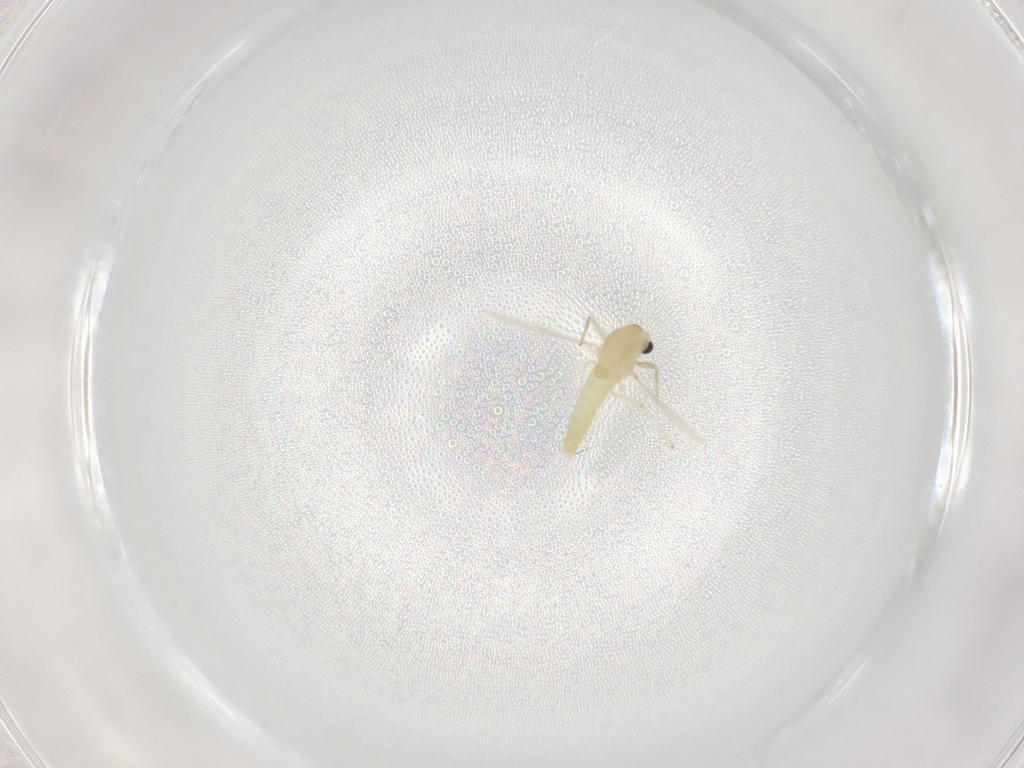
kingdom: Animalia
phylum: Arthropoda
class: Insecta
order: Diptera
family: Chironomidae
